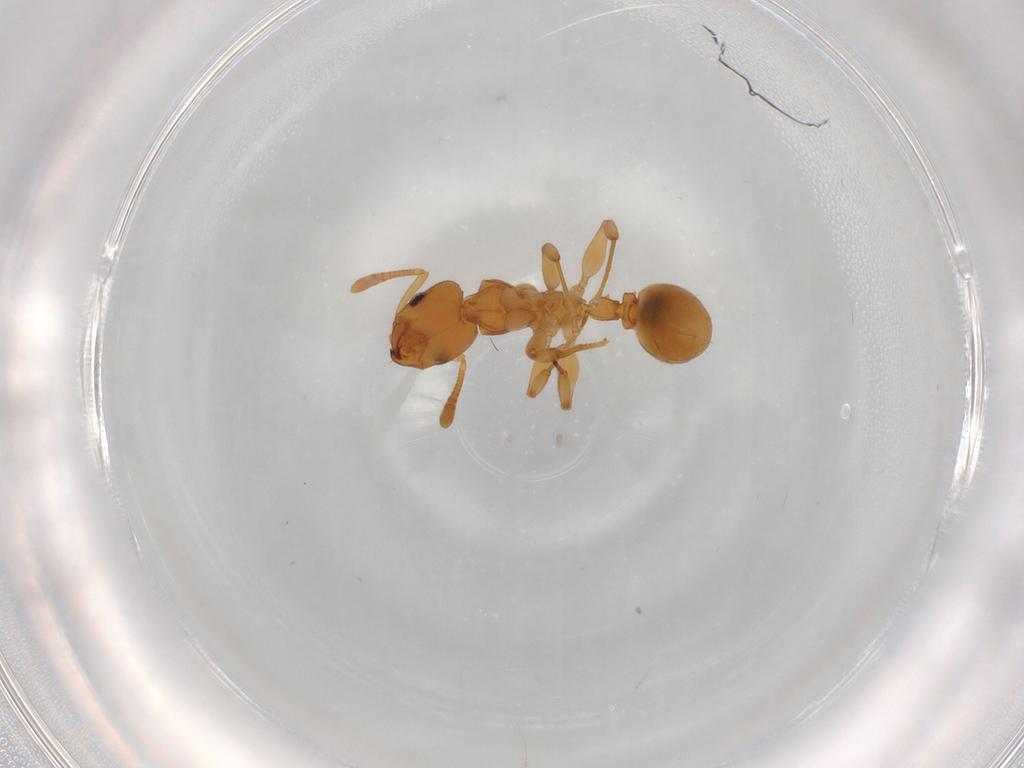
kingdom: Animalia
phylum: Arthropoda
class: Insecta
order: Hymenoptera
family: Formicidae
